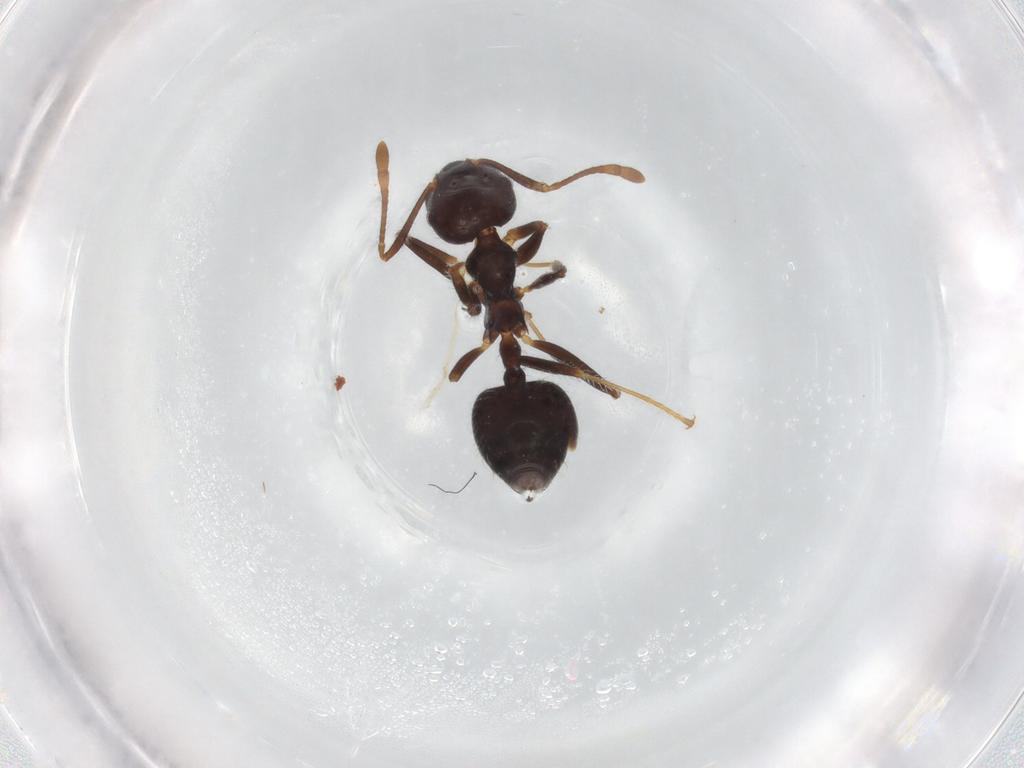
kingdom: Animalia
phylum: Arthropoda
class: Insecta
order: Hymenoptera
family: Formicidae
